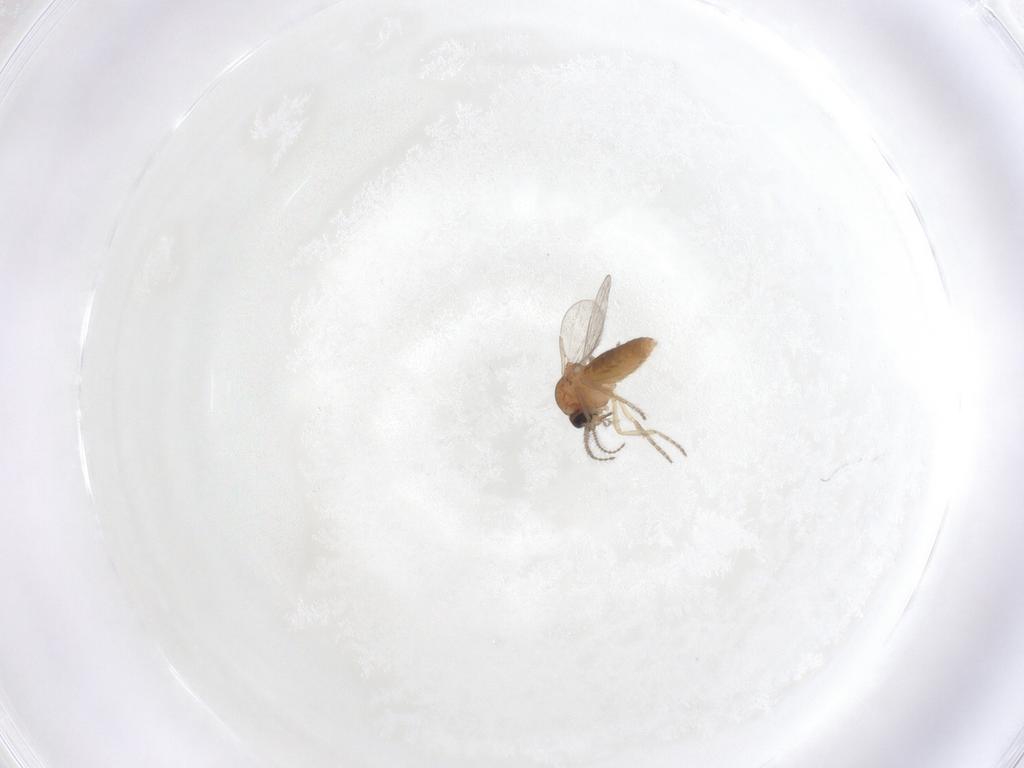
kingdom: Animalia
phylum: Arthropoda
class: Insecta
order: Diptera
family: Ceratopogonidae
